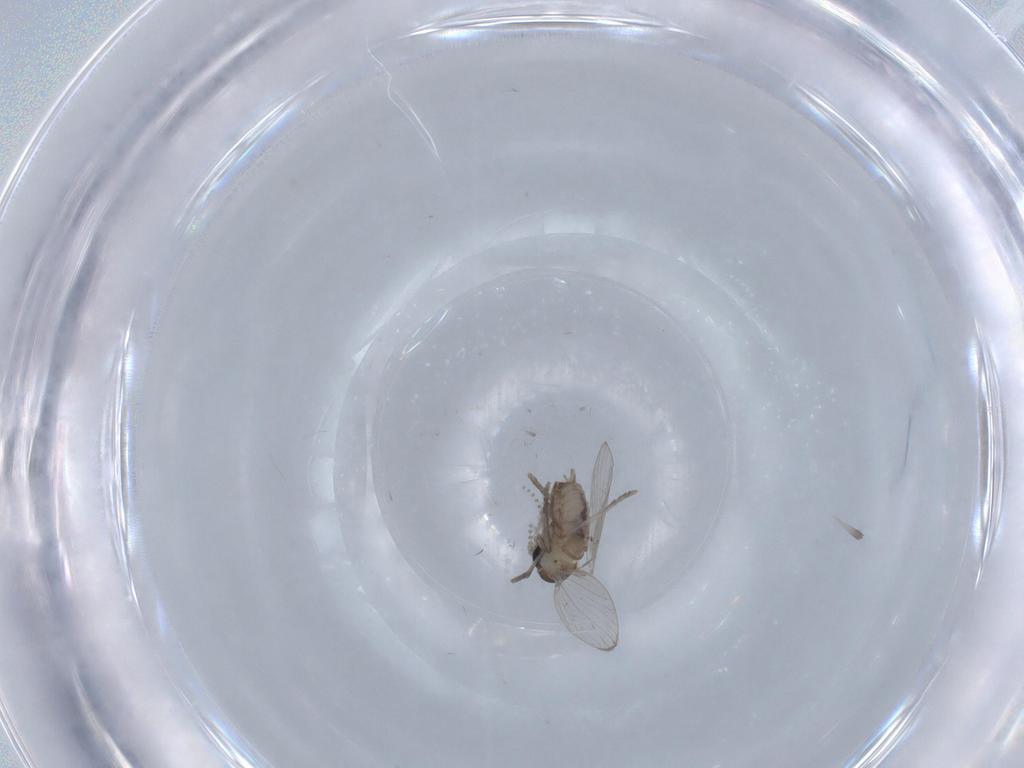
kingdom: Animalia
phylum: Arthropoda
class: Insecta
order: Diptera
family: Psychodidae
